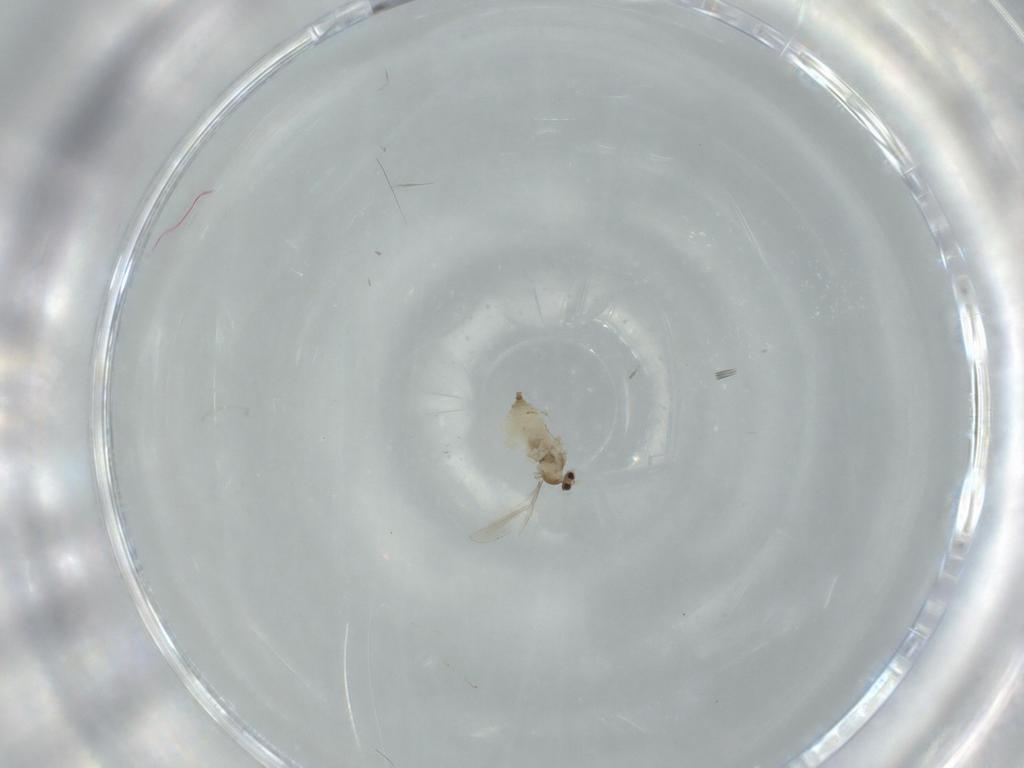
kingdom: Animalia
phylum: Arthropoda
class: Insecta
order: Diptera
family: Cecidomyiidae
